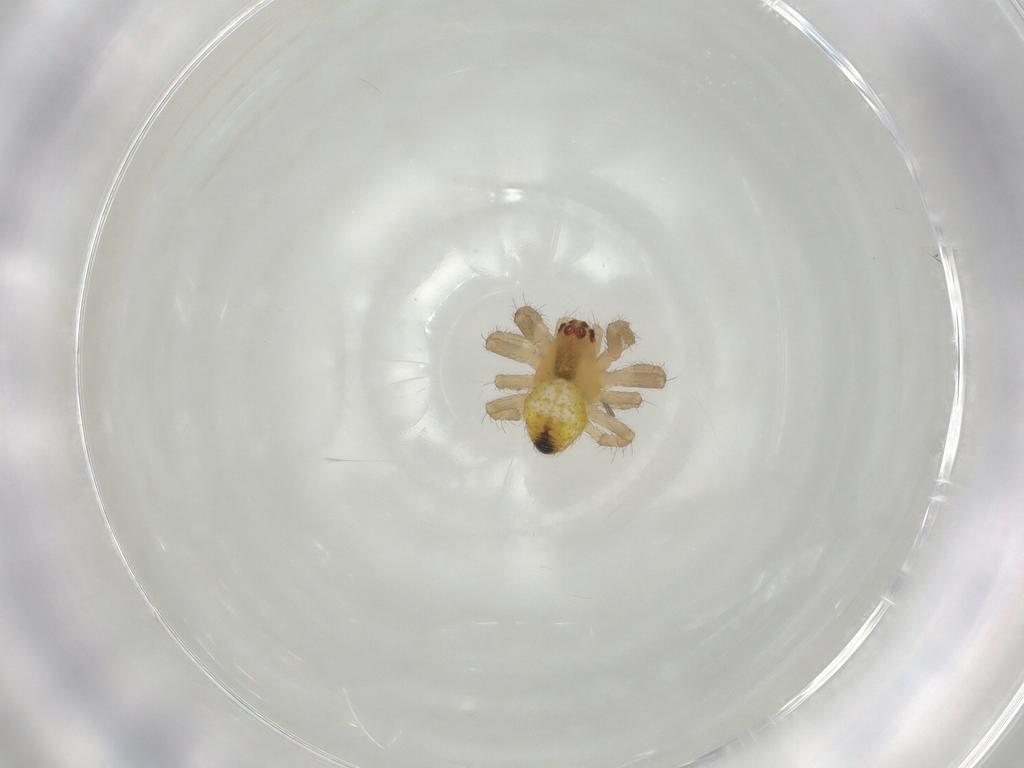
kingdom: Animalia
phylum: Arthropoda
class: Arachnida
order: Araneae
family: Araneidae
